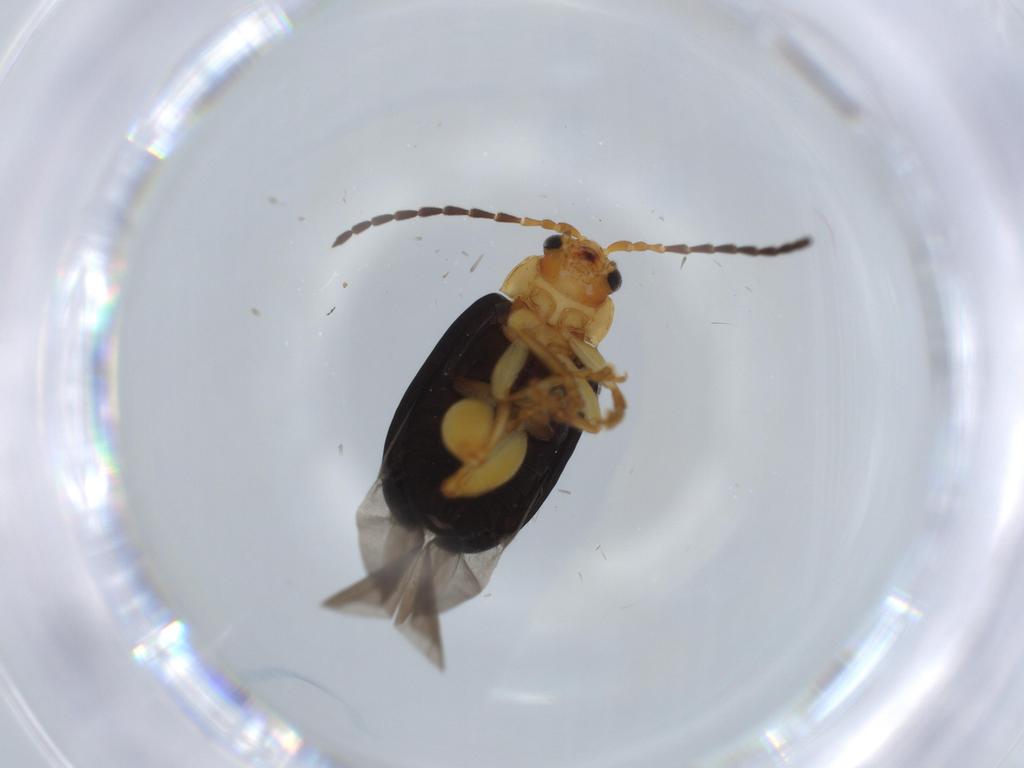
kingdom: Animalia
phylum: Arthropoda
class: Insecta
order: Coleoptera
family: Chrysomelidae
